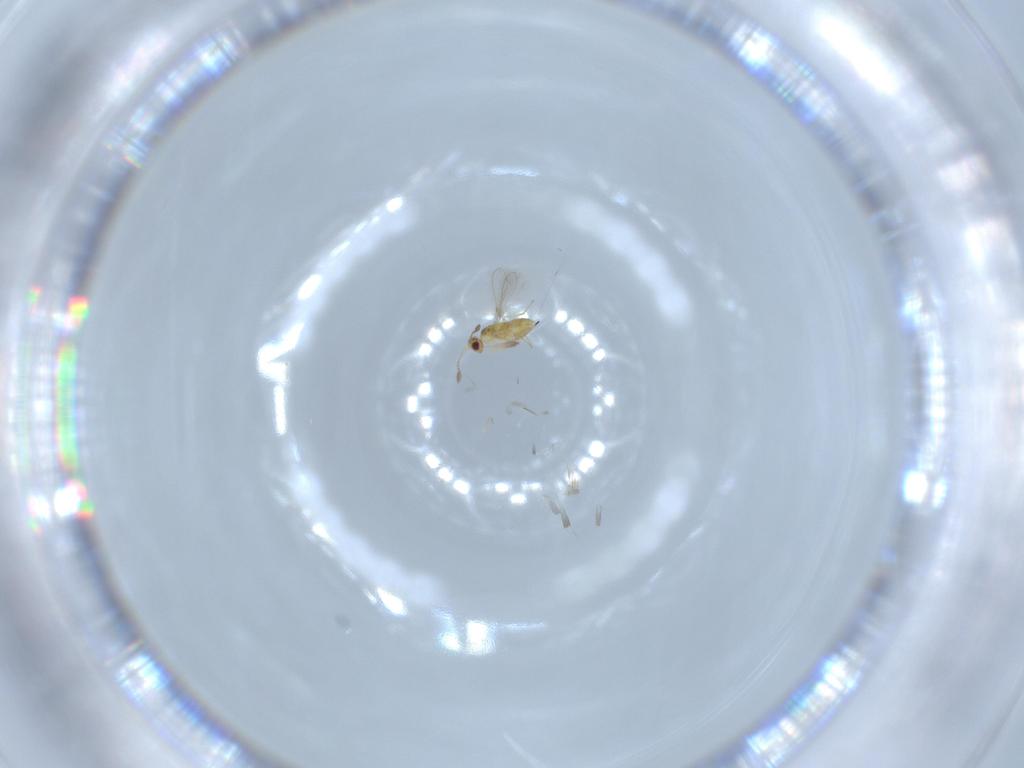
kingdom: Animalia
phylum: Arthropoda
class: Insecta
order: Hymenoptera
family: Mymaridae
